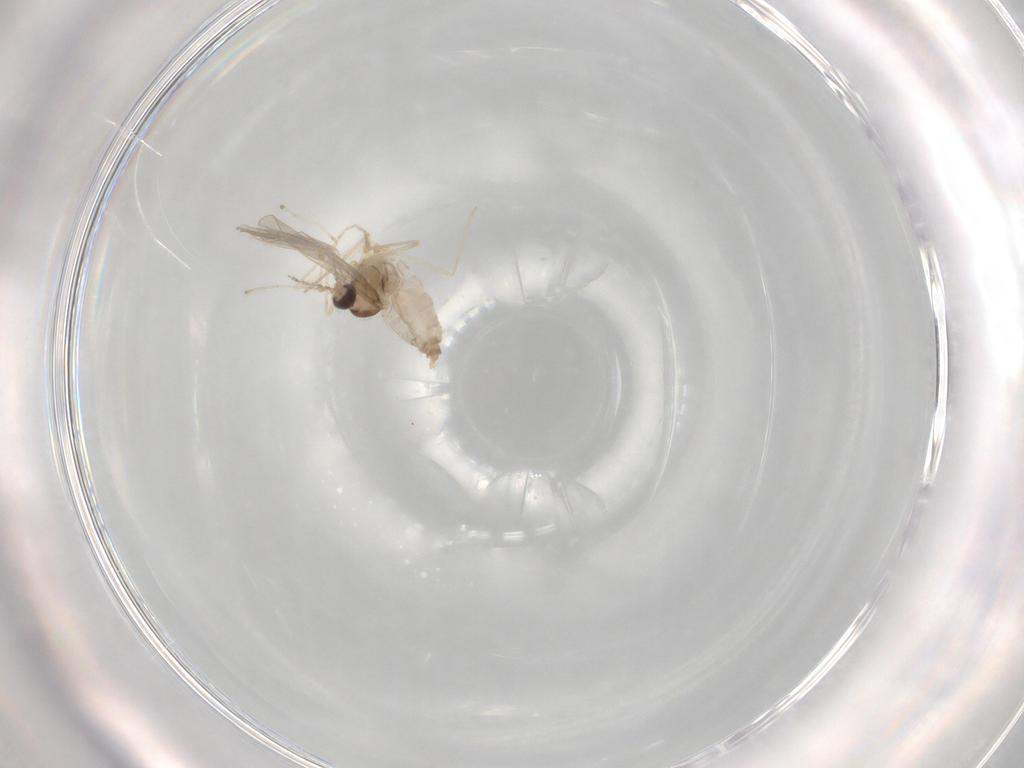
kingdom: Animalia
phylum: Arthropoda
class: Insecta
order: Diptera
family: Cecidomyiidae
